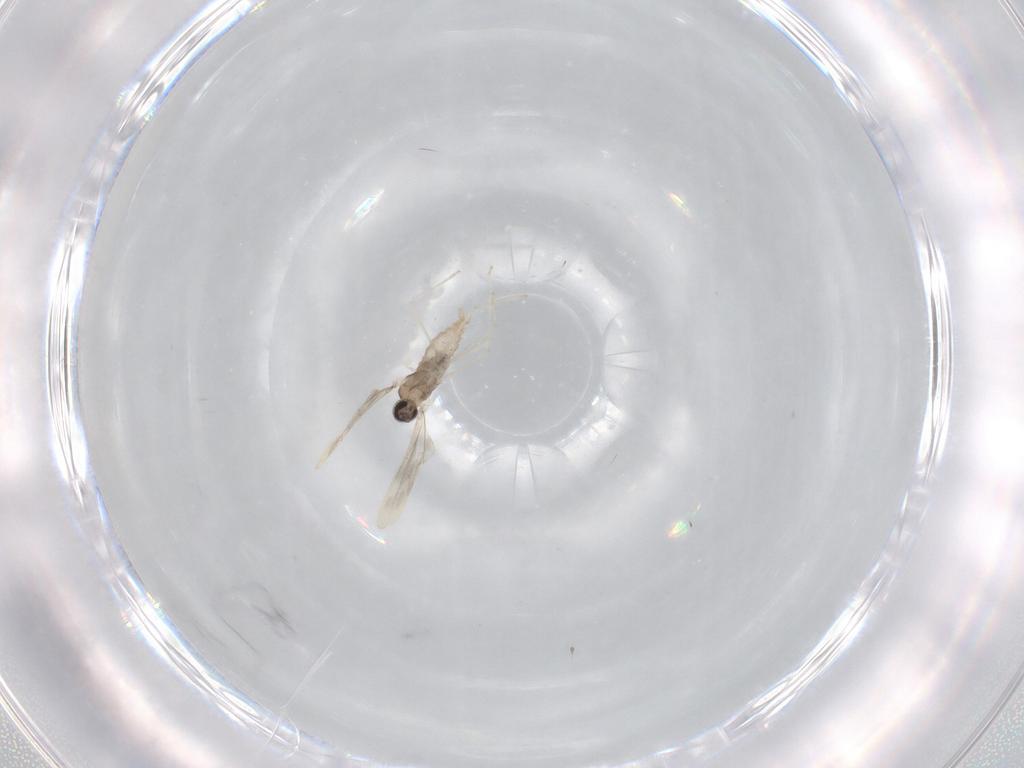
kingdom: Animalia
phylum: Arthropoda
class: Insecta
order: Diptera
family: Cecidomyiidae
